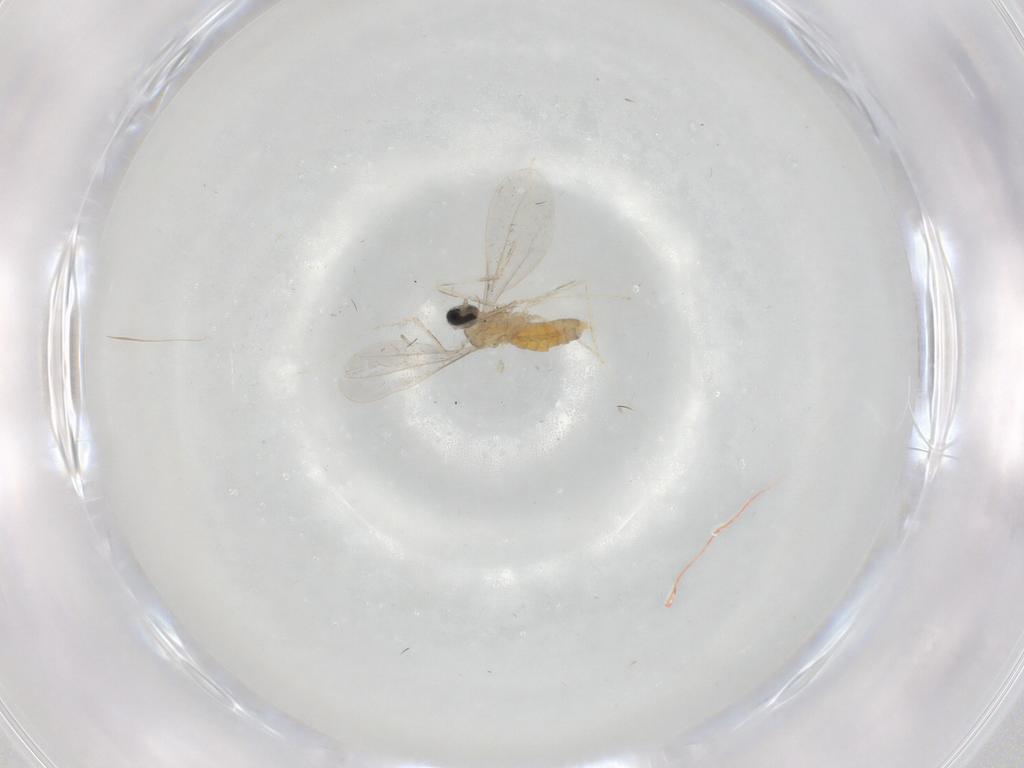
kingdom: Animalia
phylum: Arthropoda
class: Insecta
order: Diptera
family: Cecidomyiidae
